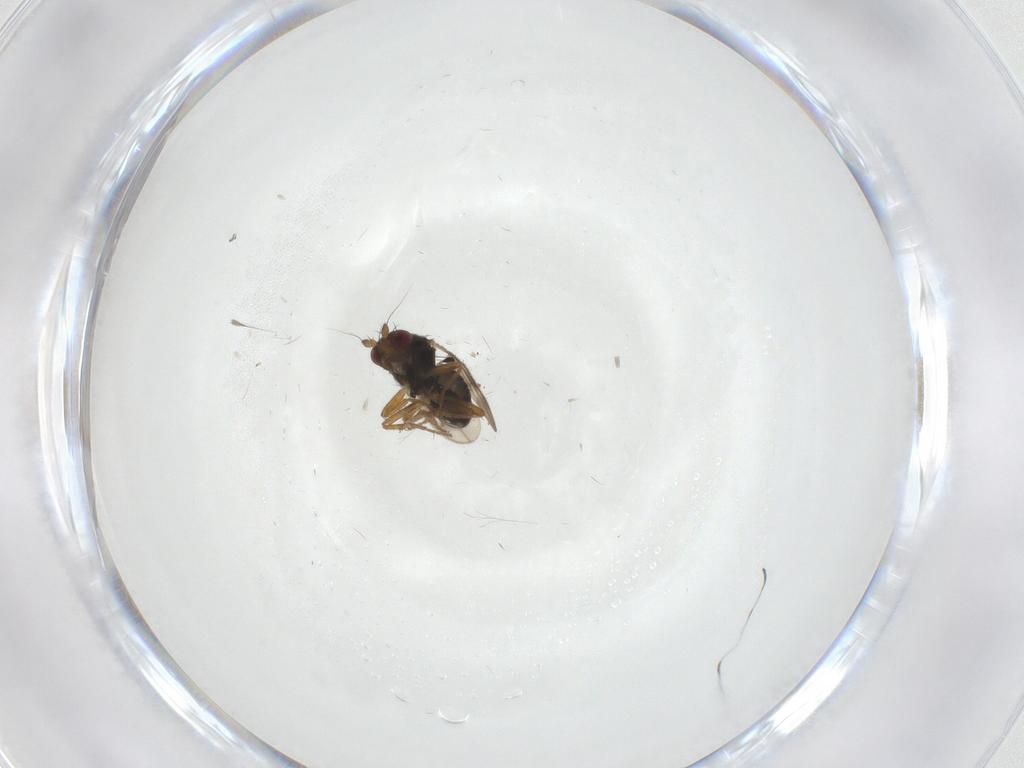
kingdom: Animalia
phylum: Arthropoda
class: Insecta
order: Diptera
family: Sphaeroceridae
